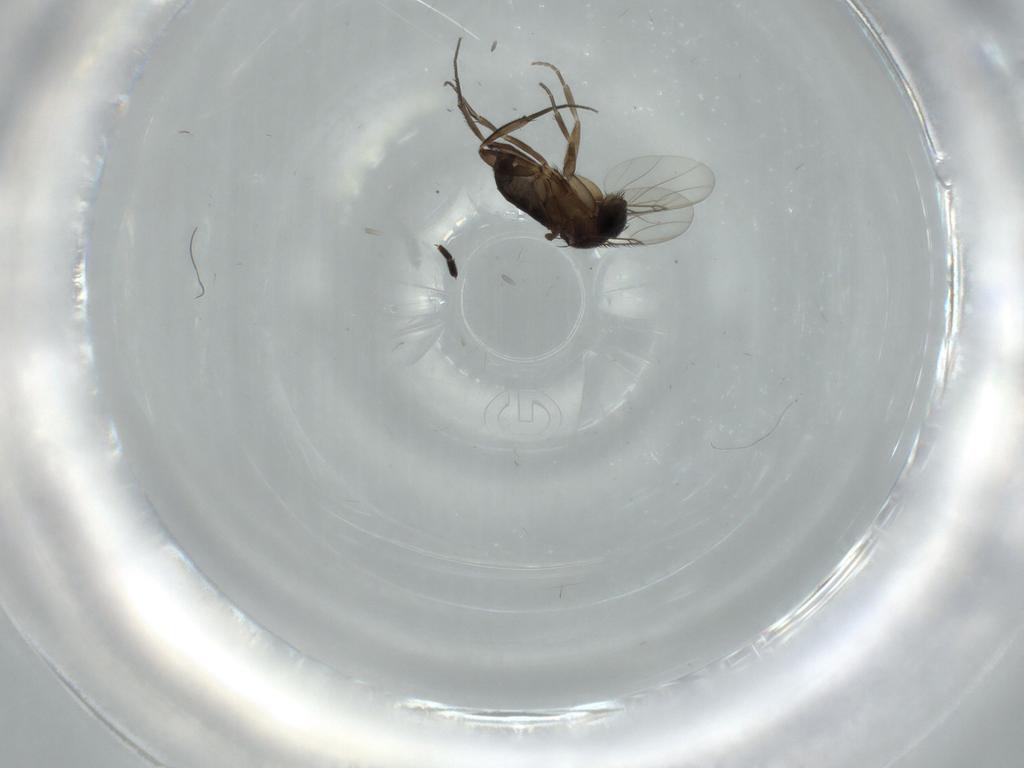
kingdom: Animalia
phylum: Arthropoda
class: Insecta
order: Diptera
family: Phoridae
